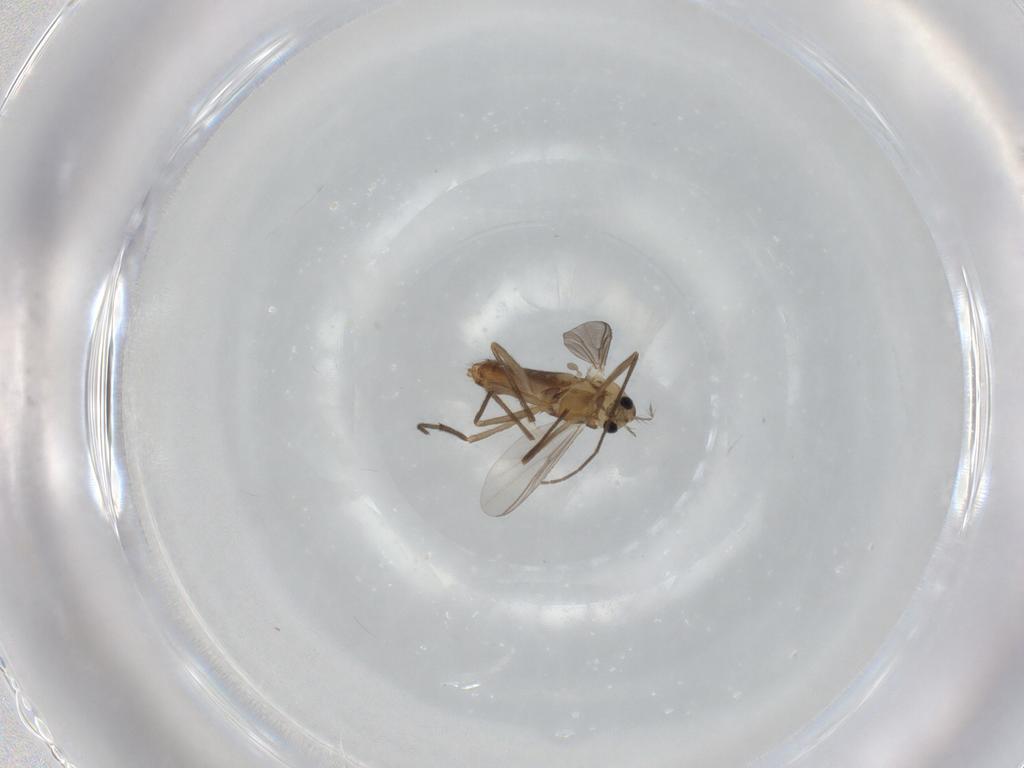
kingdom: Animalia
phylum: Arthropoda
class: Insecta
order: Diptera
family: Chironomidae
